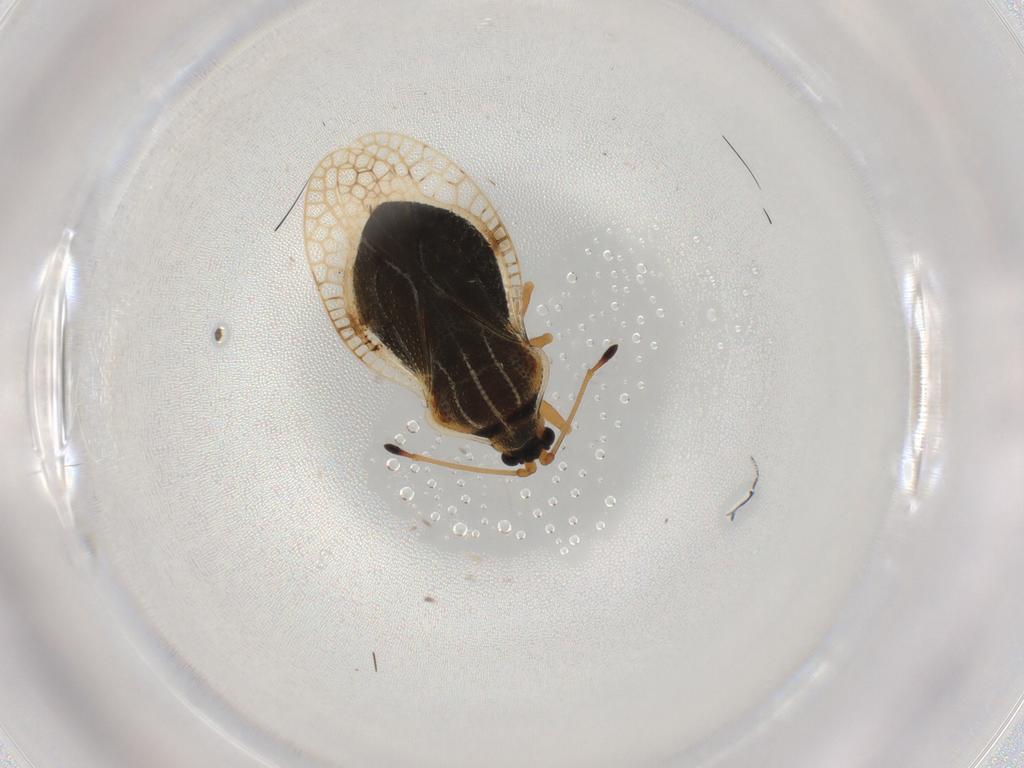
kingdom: Animalia
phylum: Arthropoda
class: Insecta
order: Hemiptera
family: Tingidae
